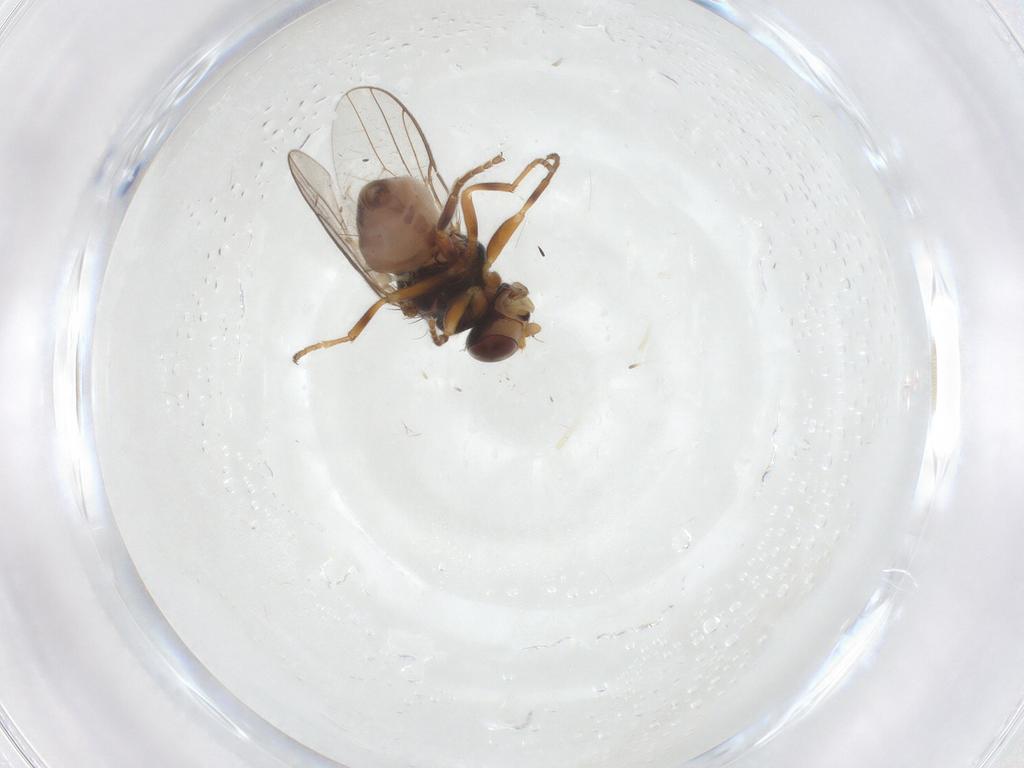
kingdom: Animalia
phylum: Arthropoda
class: Insecta
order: Diptera
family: Chloropidae
